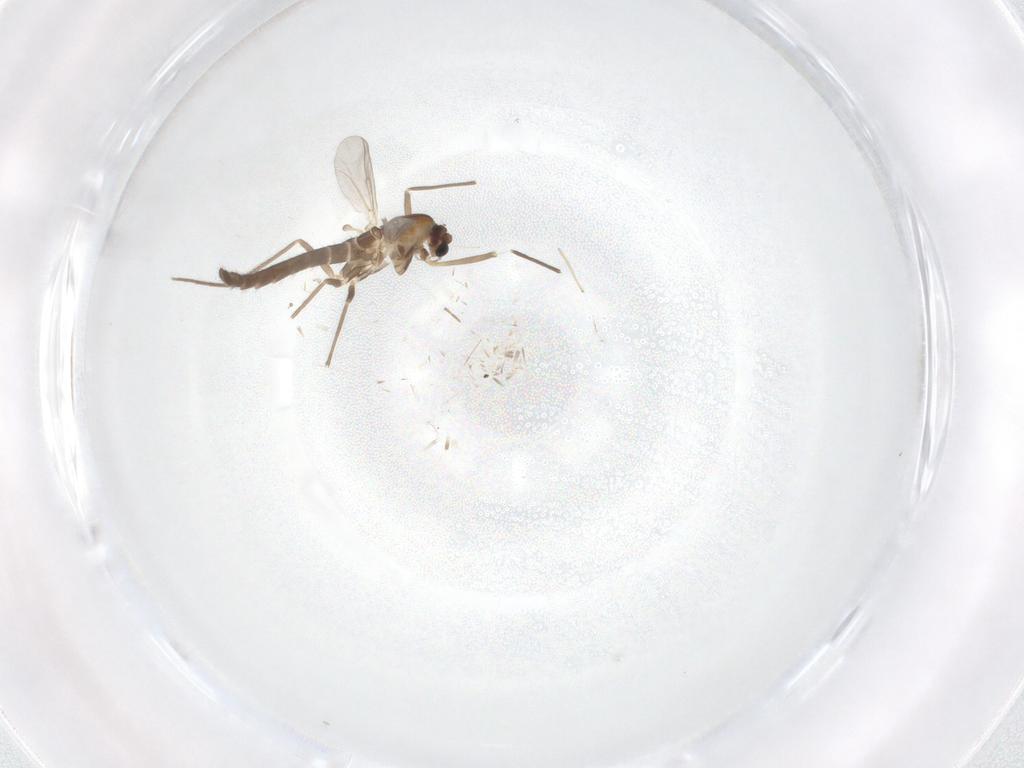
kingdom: Animalia
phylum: Arthropoda
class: Insecta
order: Diptera
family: Chironomidae
